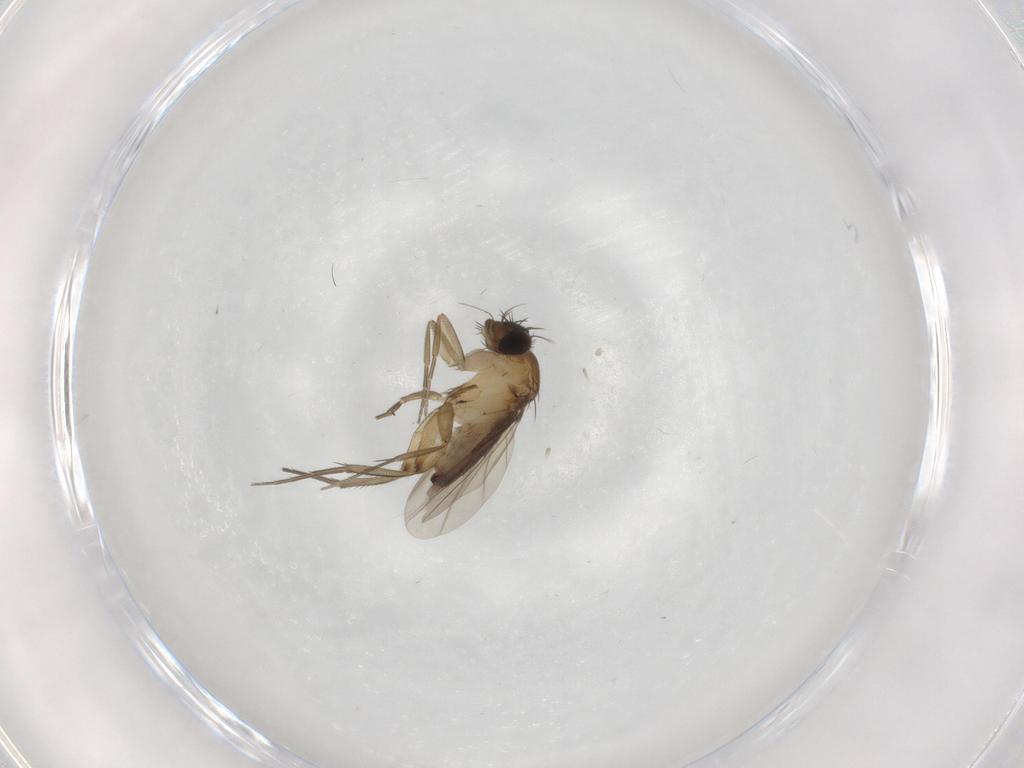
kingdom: Animalia
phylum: Arthropoda
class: Insecta
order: Diptera
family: Phoridae
